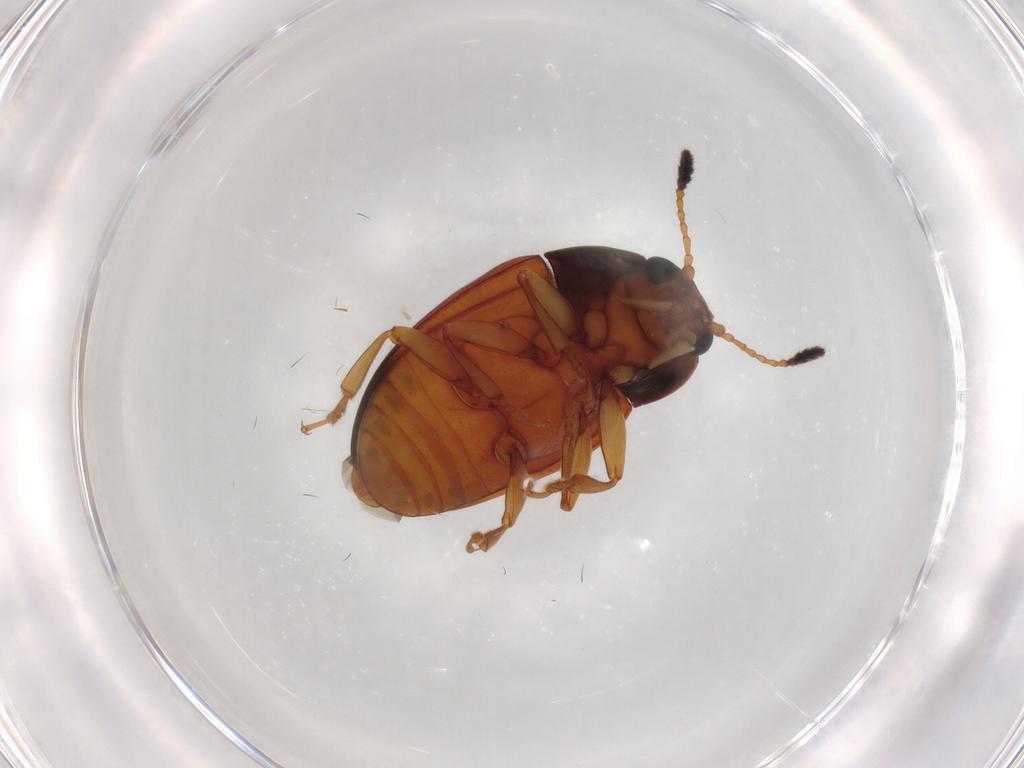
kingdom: Animalia
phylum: Arthropoda
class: Insecta
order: Coleoptera
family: Erotylidae
